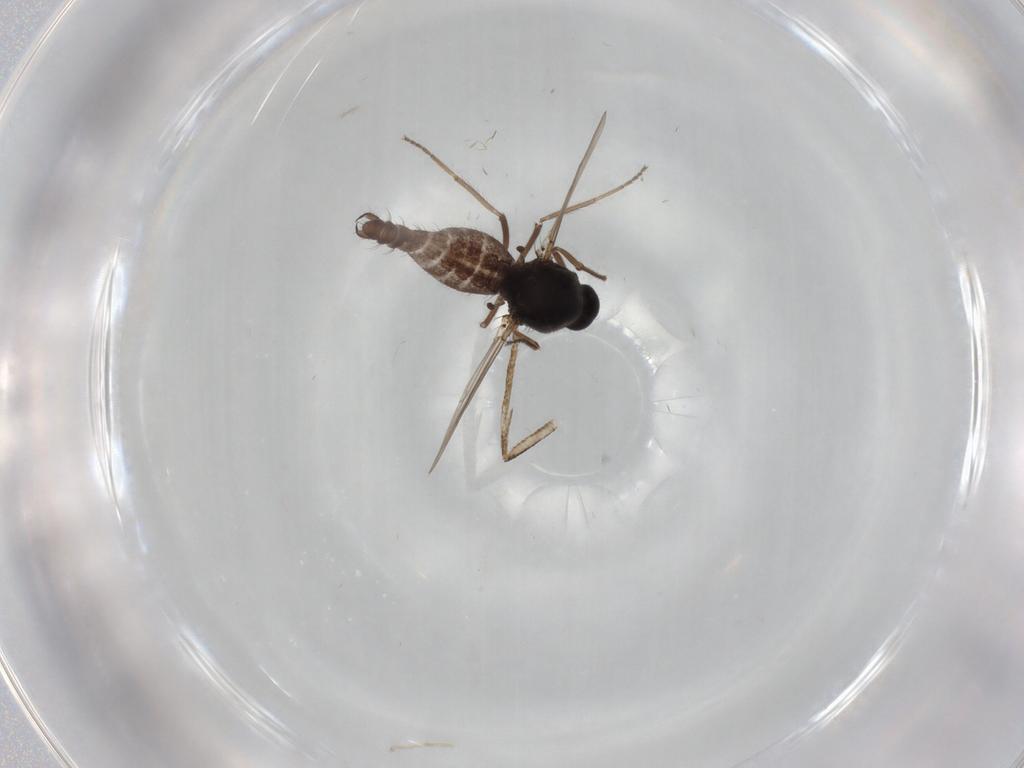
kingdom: Animalia
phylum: Arthropoda
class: Insecta
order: Diptera
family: Ceratopogonidae
